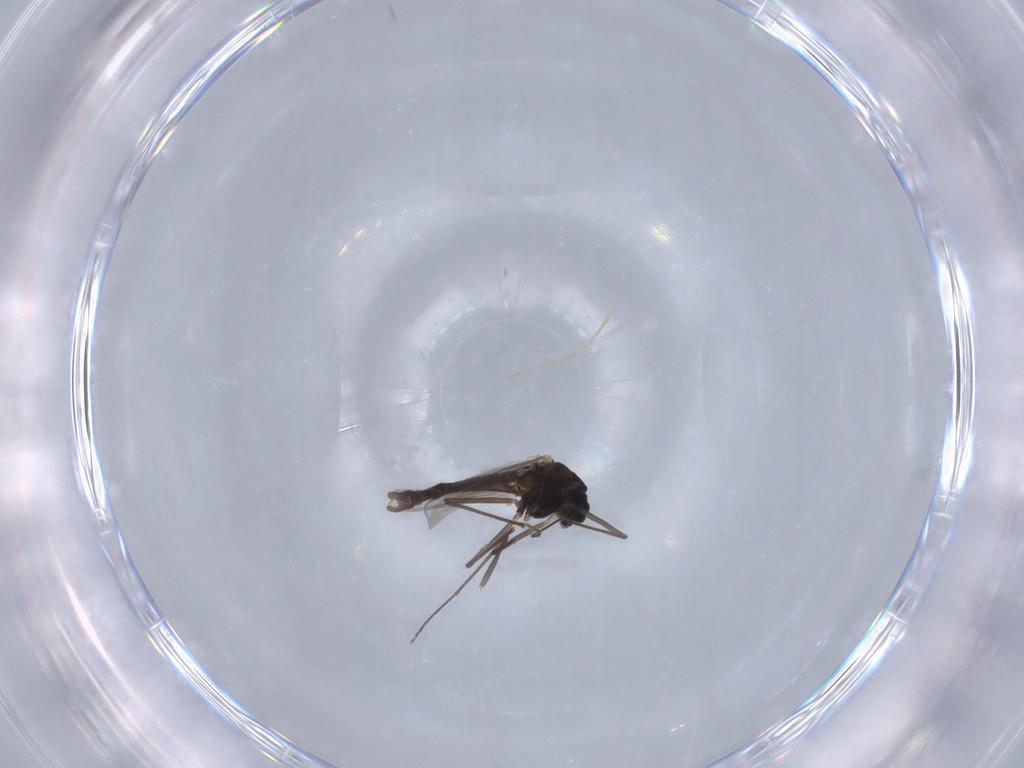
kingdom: Animalia
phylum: Arthropoda
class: Insecta
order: Diptera
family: Chironomidae
